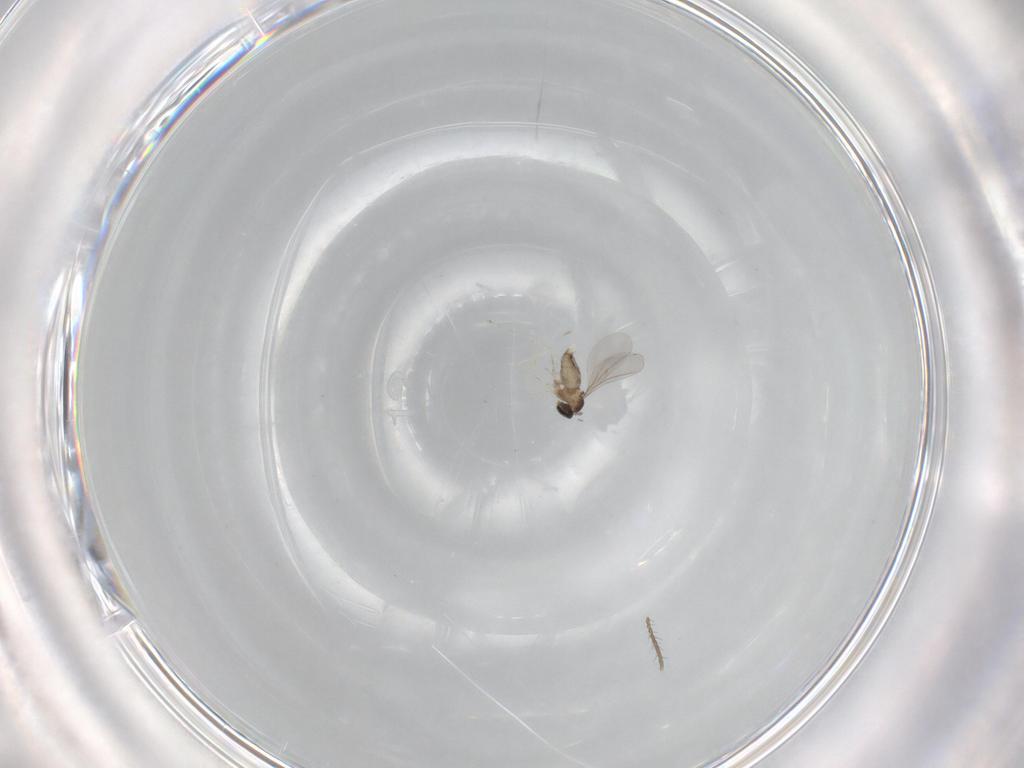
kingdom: Animalia
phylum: Arthropoda
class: Insecta
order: Diptera
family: Cecidomyiidae
